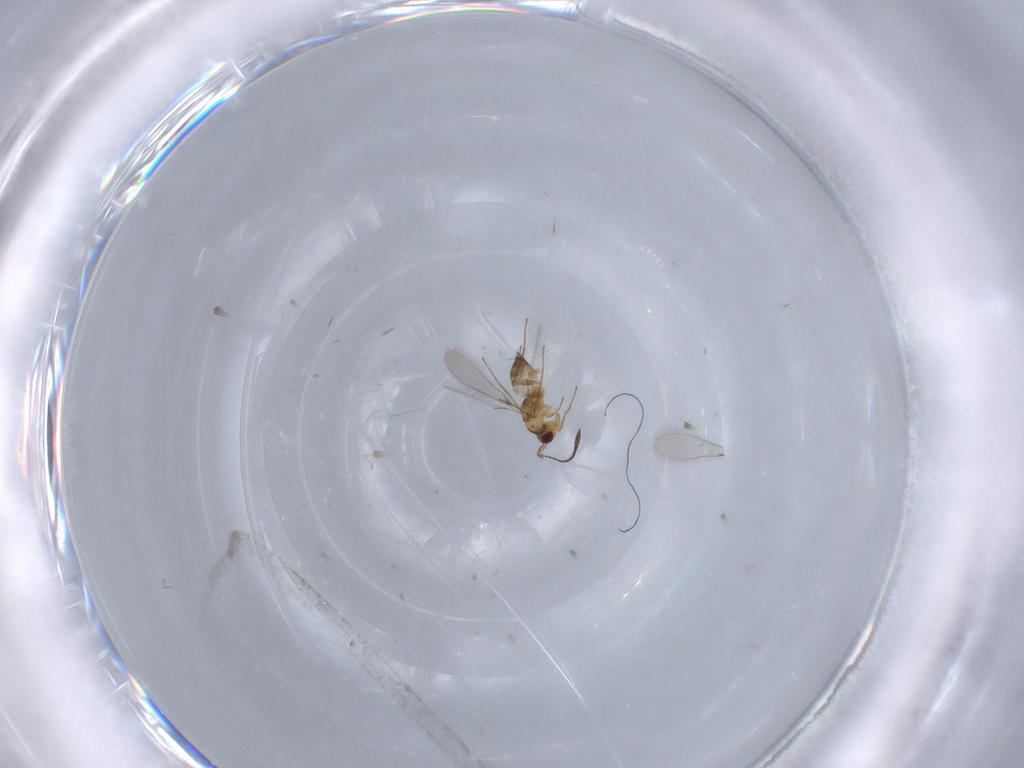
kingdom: Animalia
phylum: Arthropoda
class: Insecta
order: Hymenoptera
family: Mymaridae
